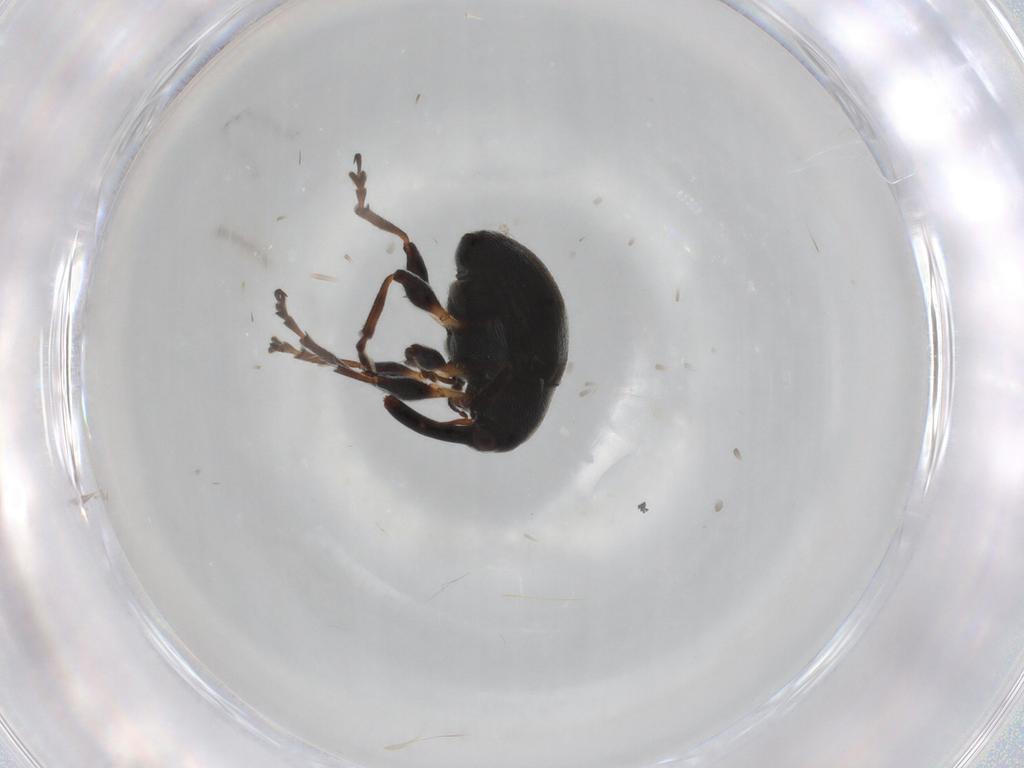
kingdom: Animalia
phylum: Arthropoda
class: Insecta
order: Coleoptera
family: Brentidae
